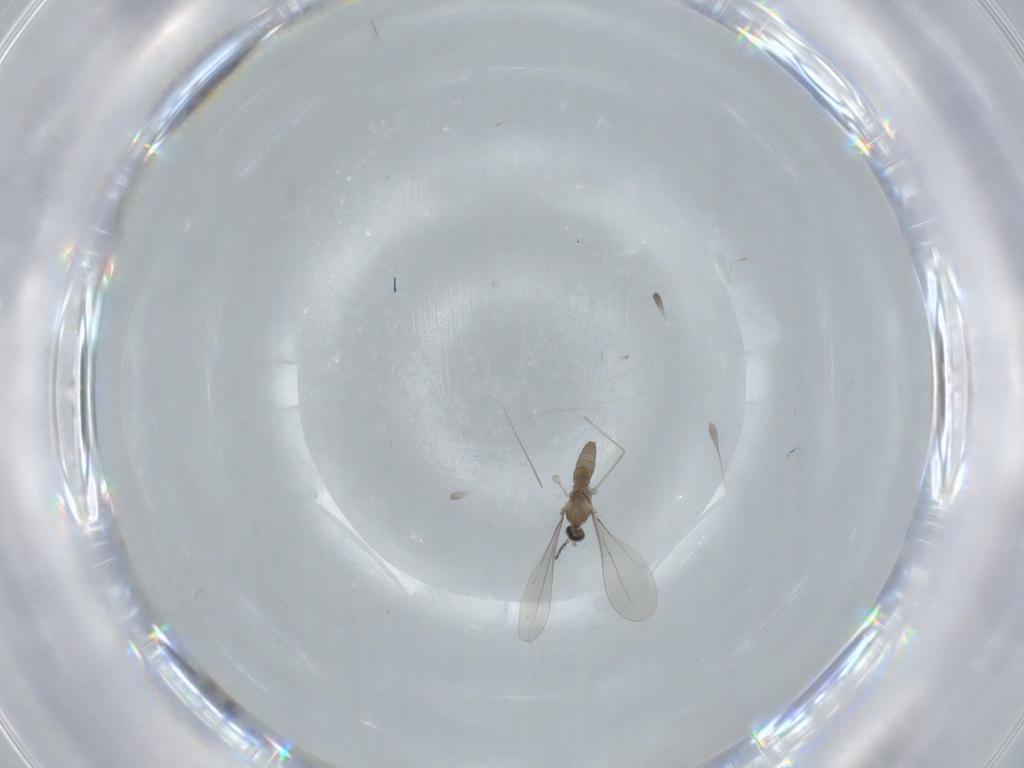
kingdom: Animalia
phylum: Arthropoda
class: Insecta
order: Diptera
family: Cecidomyiidae
